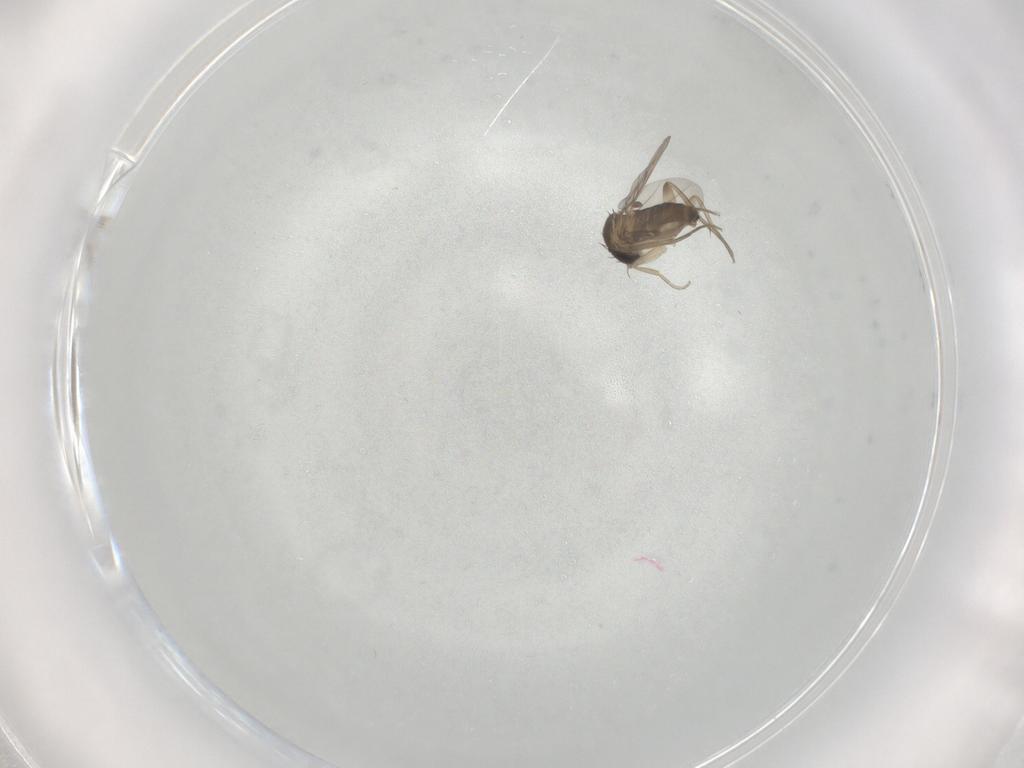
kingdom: Animalia
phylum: Arthropoda
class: Insecta
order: Diptera
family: Phoridae
